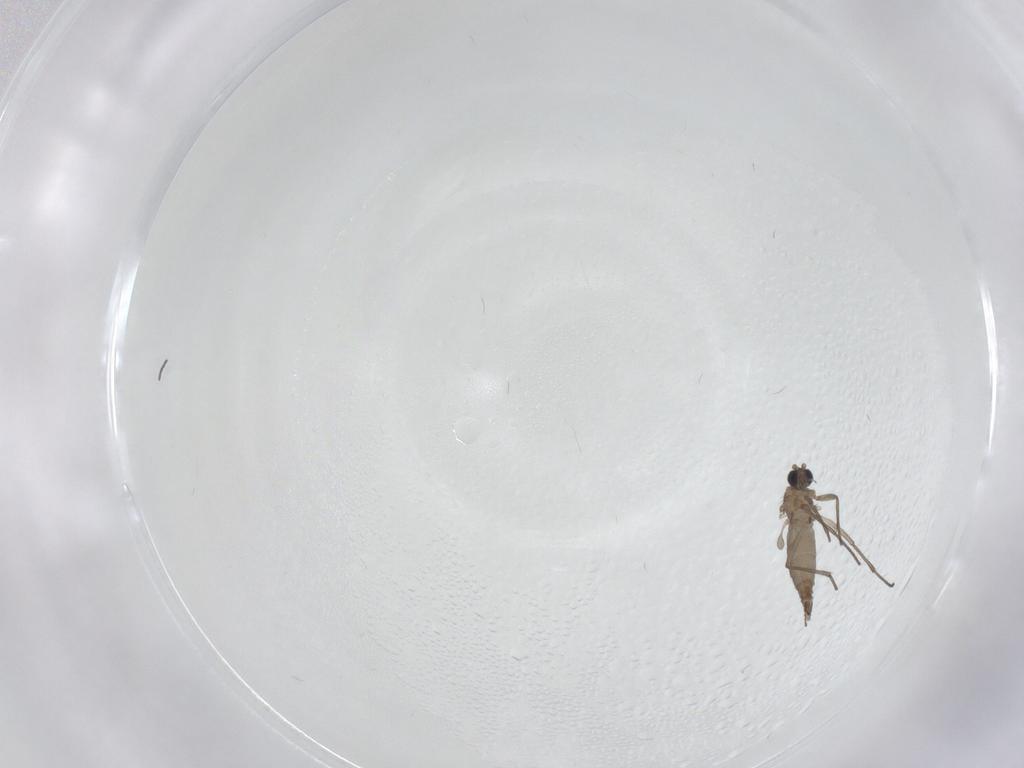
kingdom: Animalia
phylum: Arthropoda
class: Insecta
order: Diptera
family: Sciaridae
